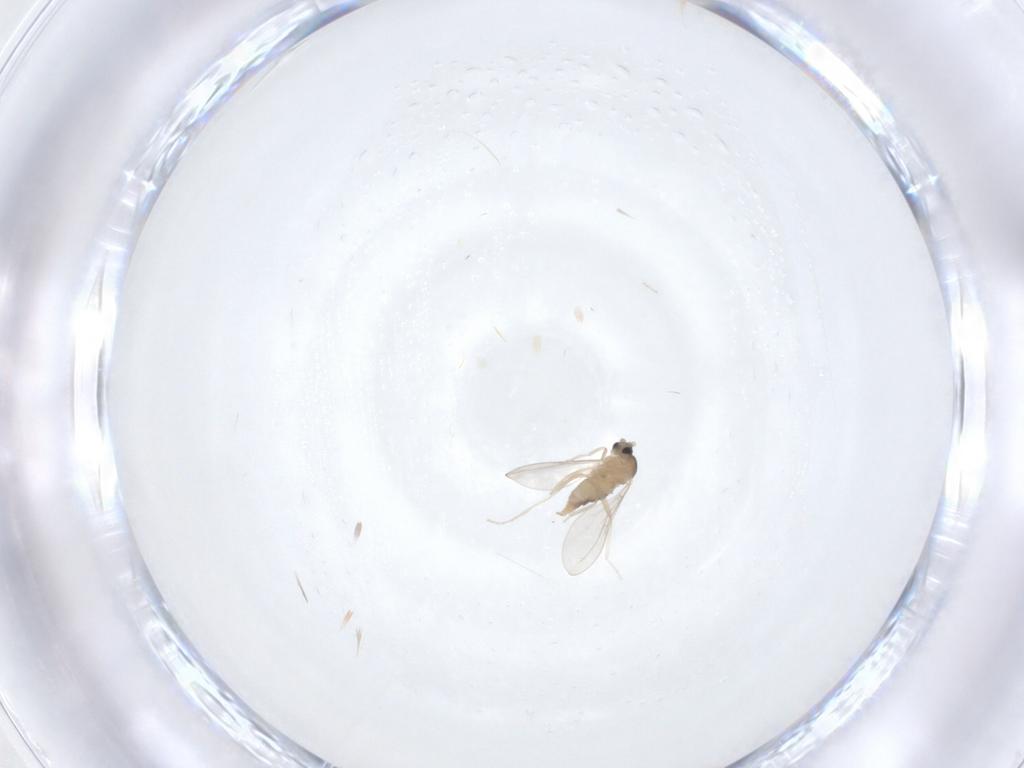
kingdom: Animalia
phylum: Arthropoda
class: Insecta
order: Diptera
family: Cecidomyiidae
